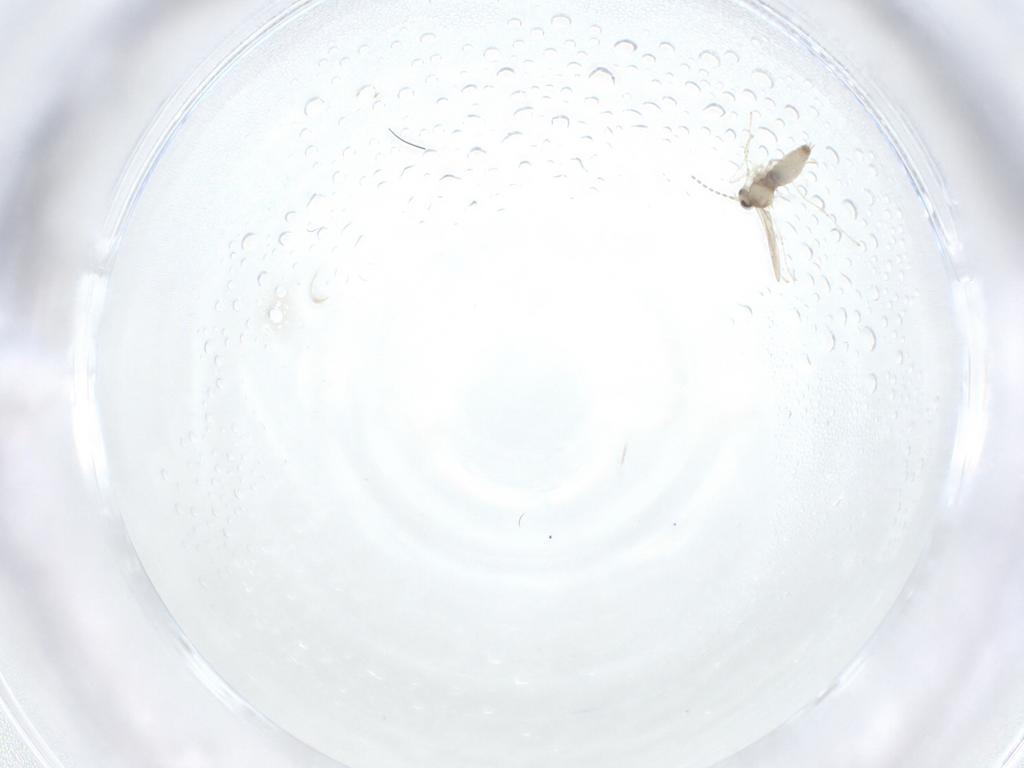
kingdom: Animalia
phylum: Arthropoda
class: Insecta
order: Diptera
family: Cecidomyiidae
